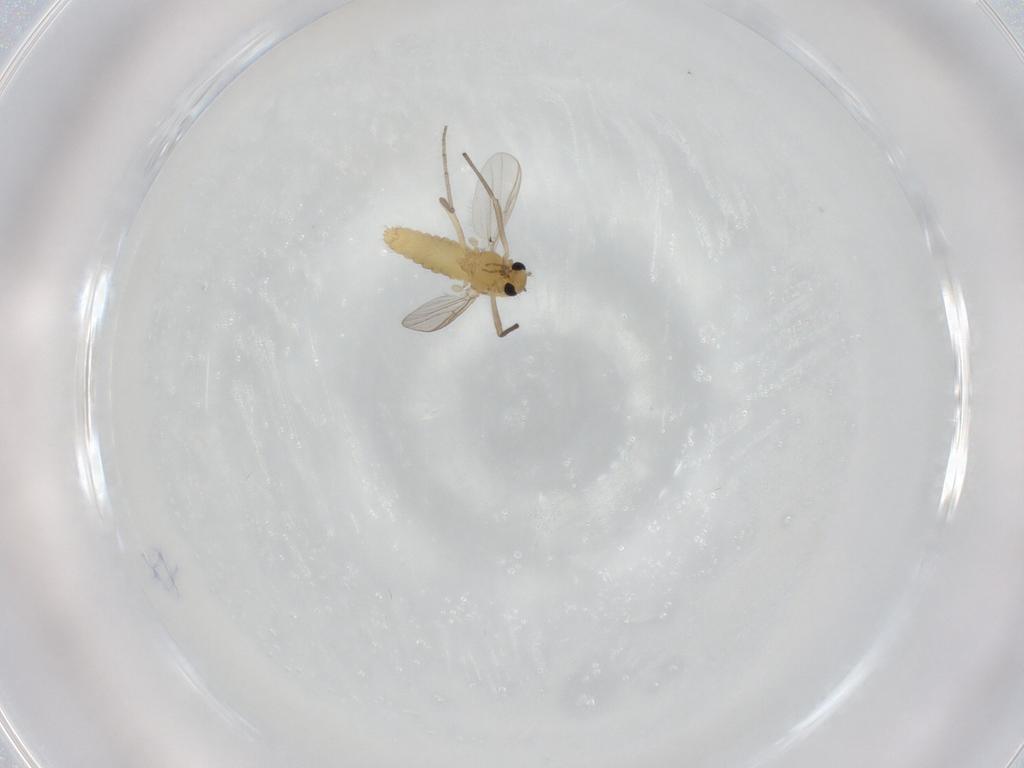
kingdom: Animalia
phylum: Arthropoda
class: Insecta
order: Diptera
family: Chironomidae
